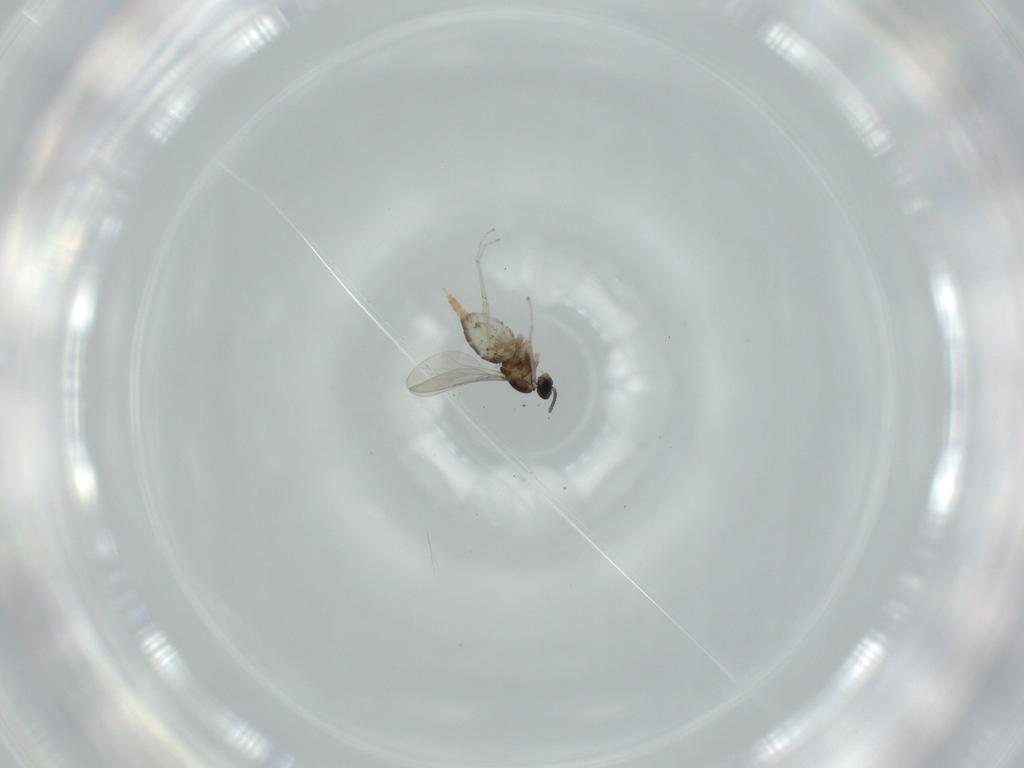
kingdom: Animalia
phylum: Arthropoda
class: Insecta
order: Diptera
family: Cecidomyiidae
